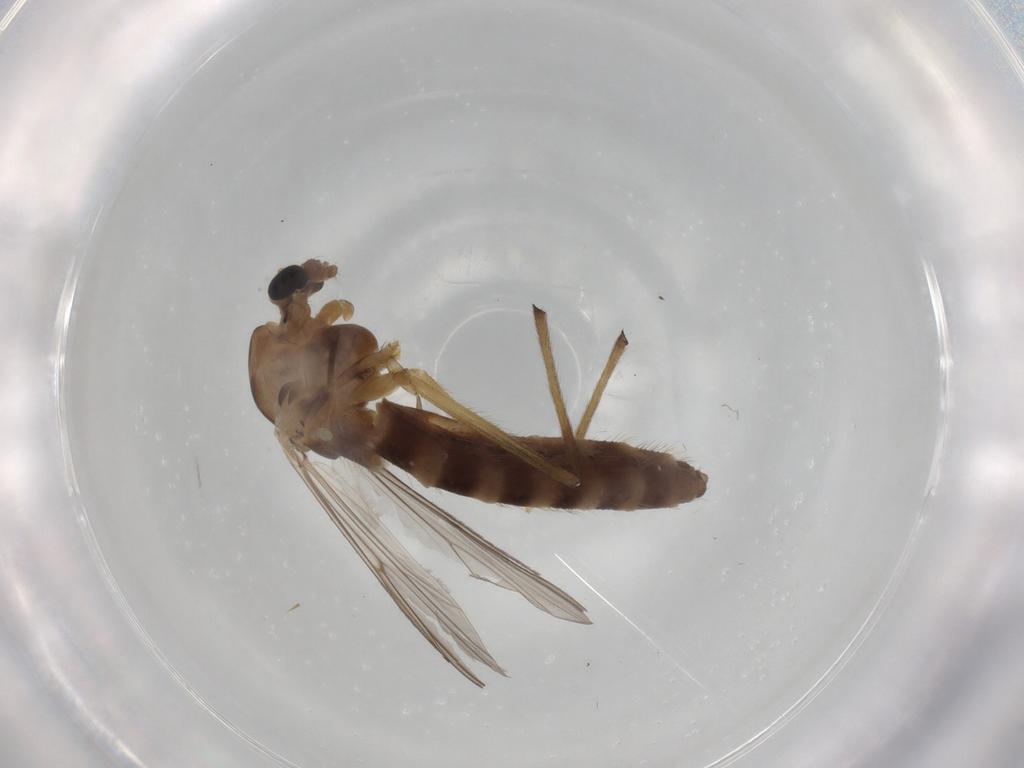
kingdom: Animalia
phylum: Arthropoda
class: Insecta
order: Diptera
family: Chironomidae
